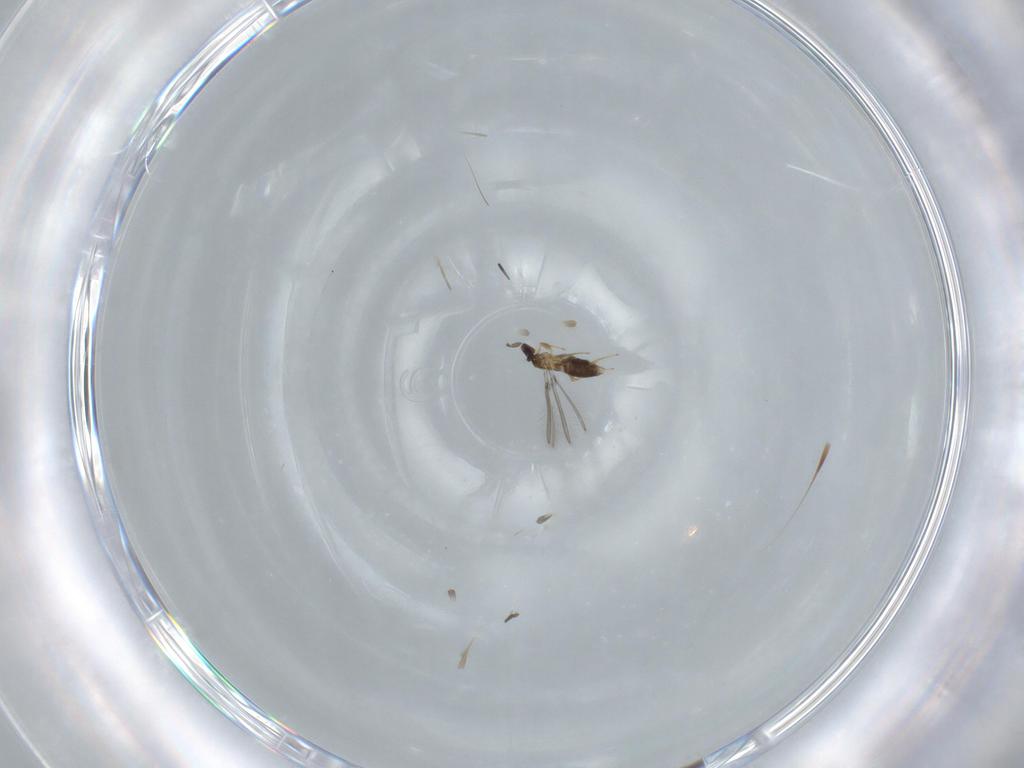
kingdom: Animalia
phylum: Arthropoda
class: Insecta
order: Hymenoptera
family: Mymaridae
